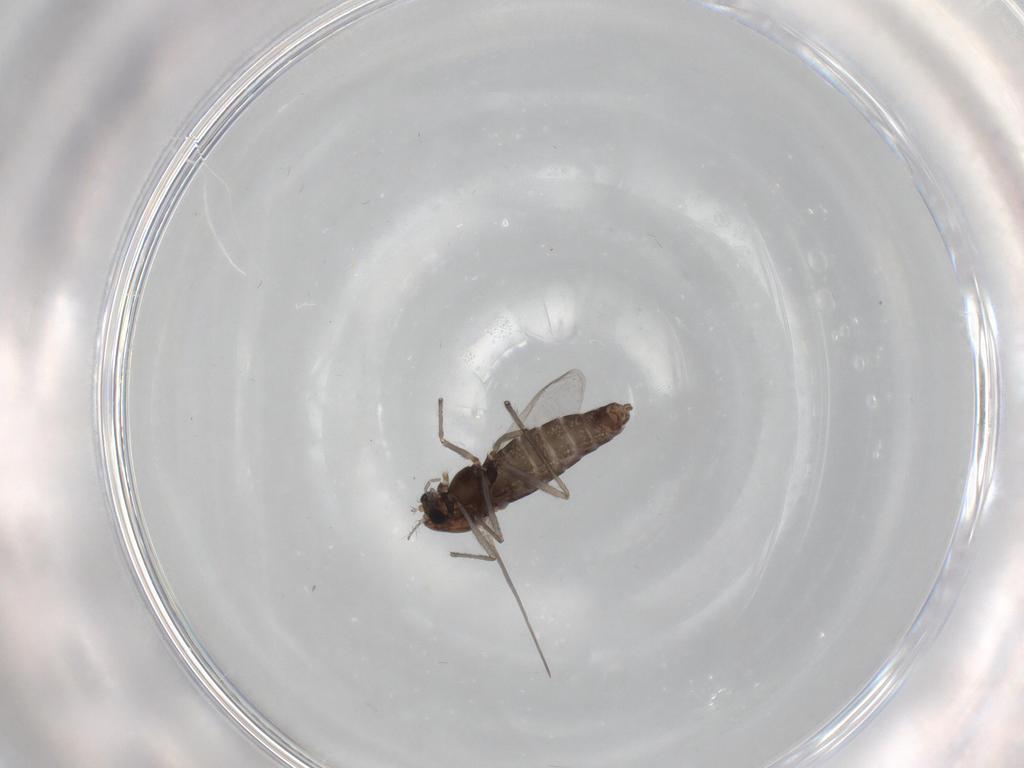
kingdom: Animalia
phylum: Arthropoda
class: Insecta
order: Diptera
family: Chironomidae
